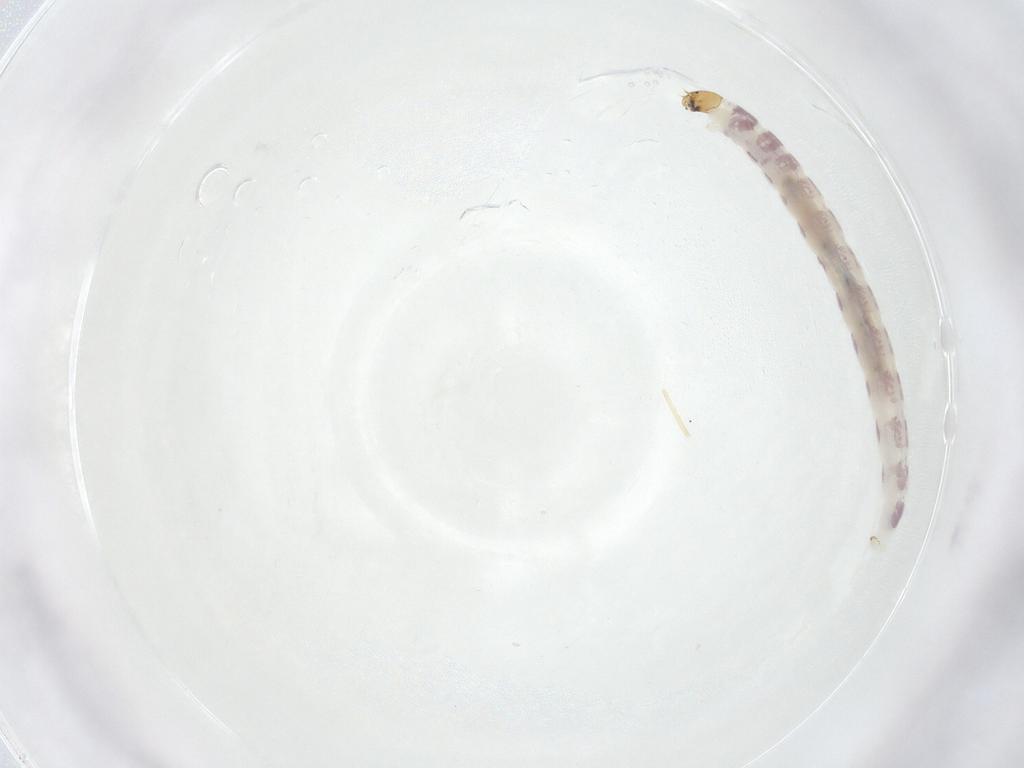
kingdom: Animalia
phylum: Arthropoda
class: Insecta
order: Diptera
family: Chironomidae
